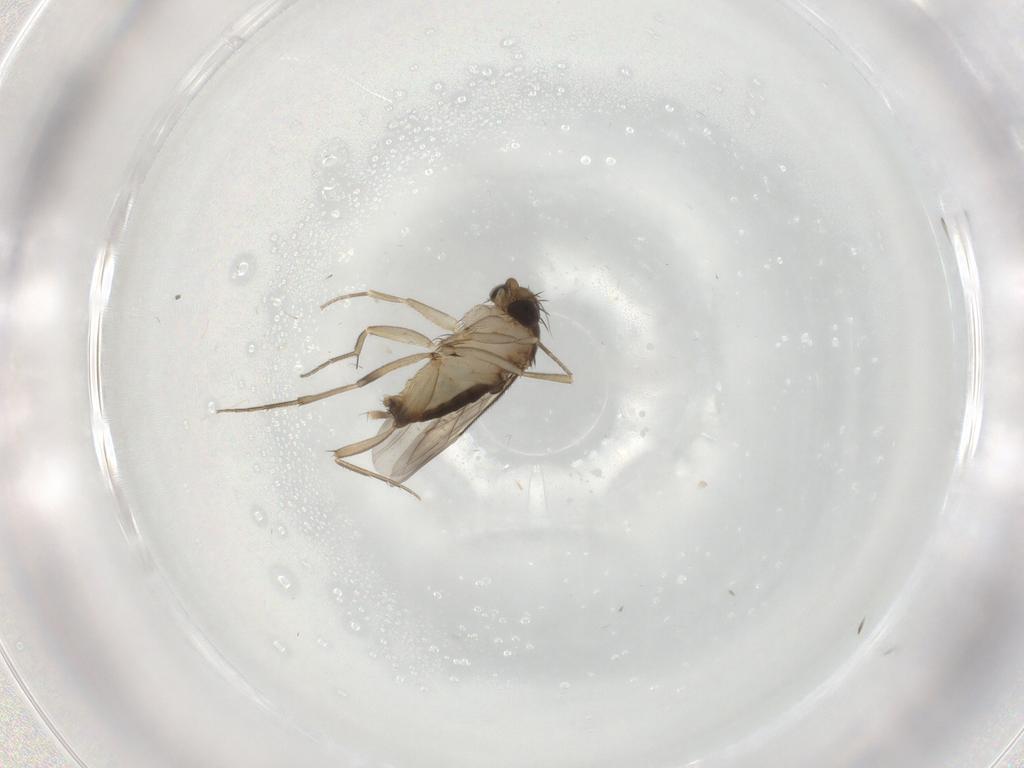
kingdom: Animalia
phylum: Arthropoda
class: Insecta
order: Diptera
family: Phoridae
